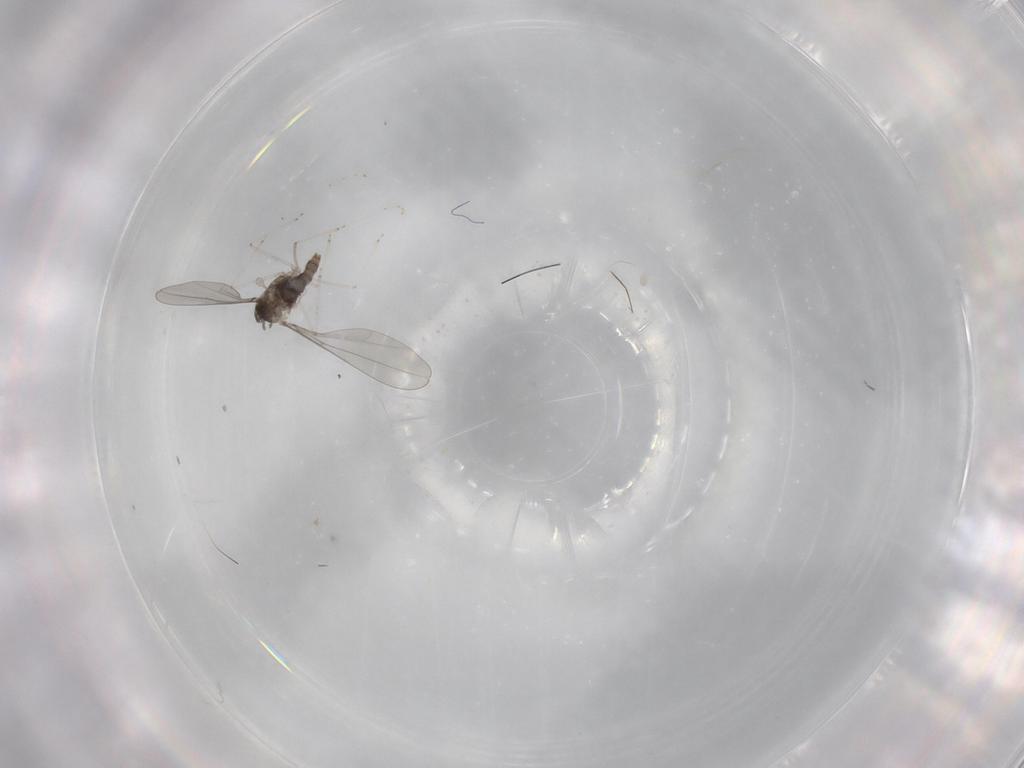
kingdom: Animalia
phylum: Arthropoda
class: Insecta
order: Diptera
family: Cecidomyiidae
